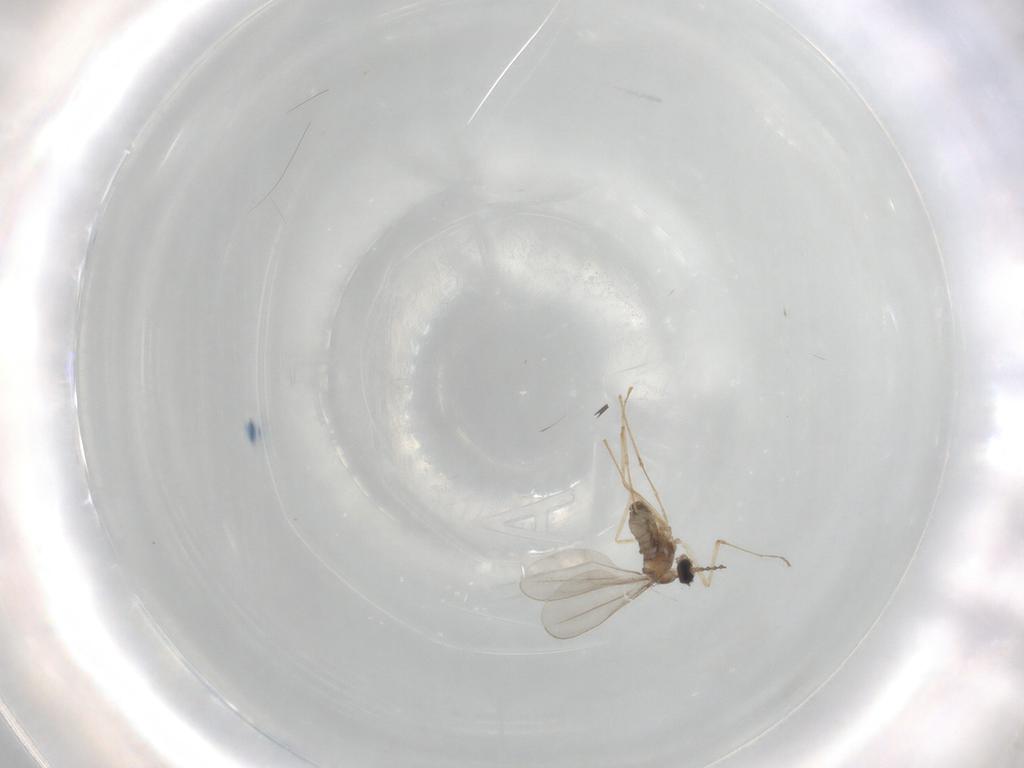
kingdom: Animalia
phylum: Arthropoda
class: Insecta
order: Diptera
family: Cecidomyiidae
